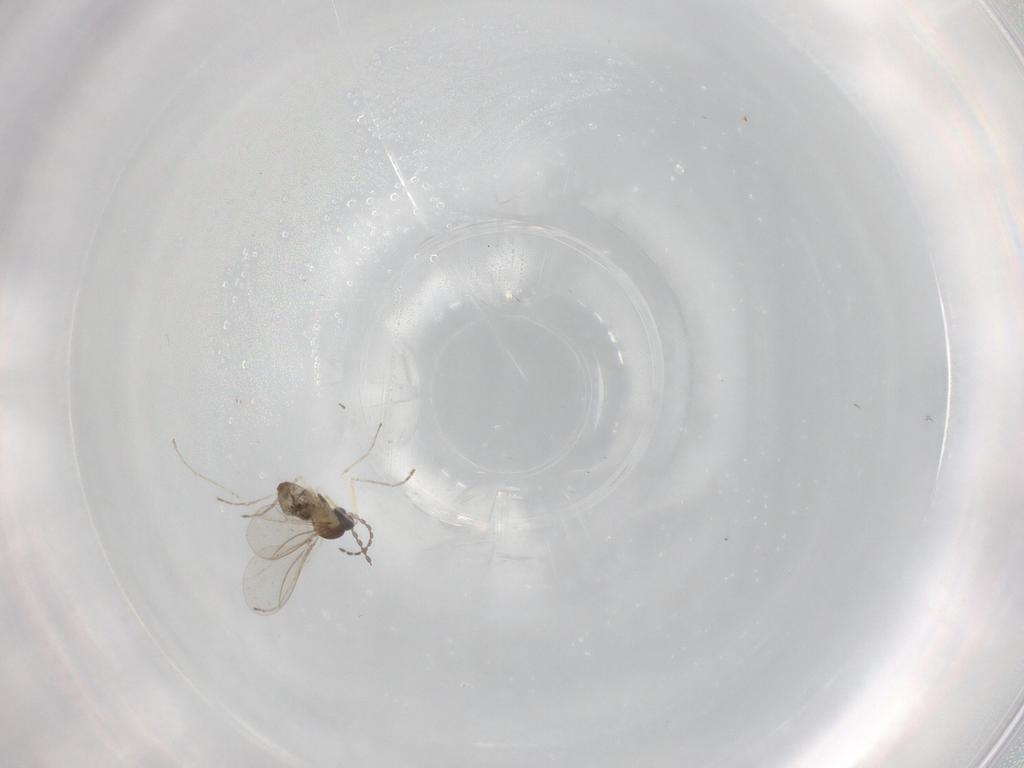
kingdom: Animalia
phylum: Arthropoda
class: Insecta
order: Diptera
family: Cecidomyiidae
